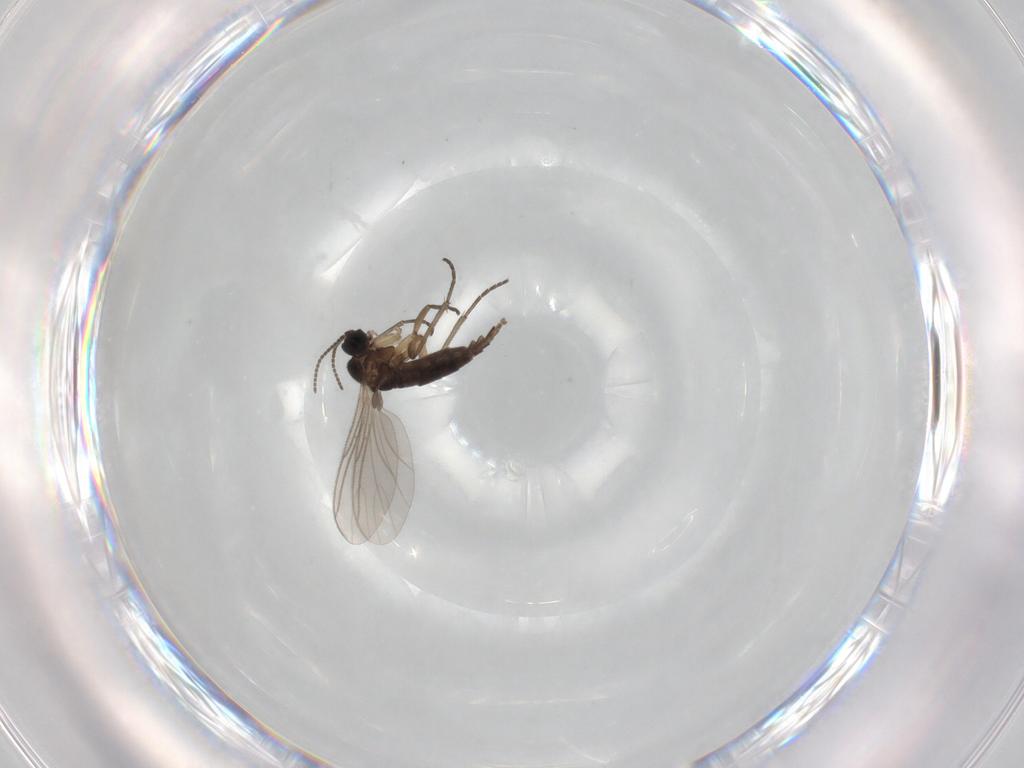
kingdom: Animalia
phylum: Arthropoda
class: Insecta
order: Diptera
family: Sciaridae
